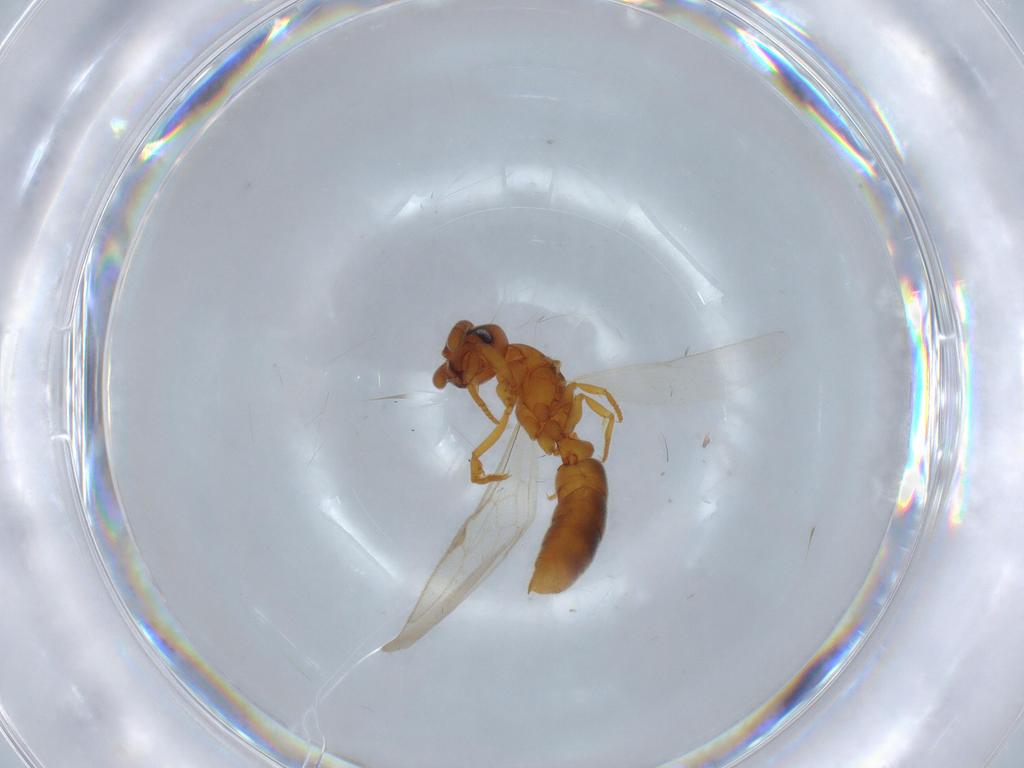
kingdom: Animalia
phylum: Arthropoda
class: Insecta
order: Hymenoptera
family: Formicidae
